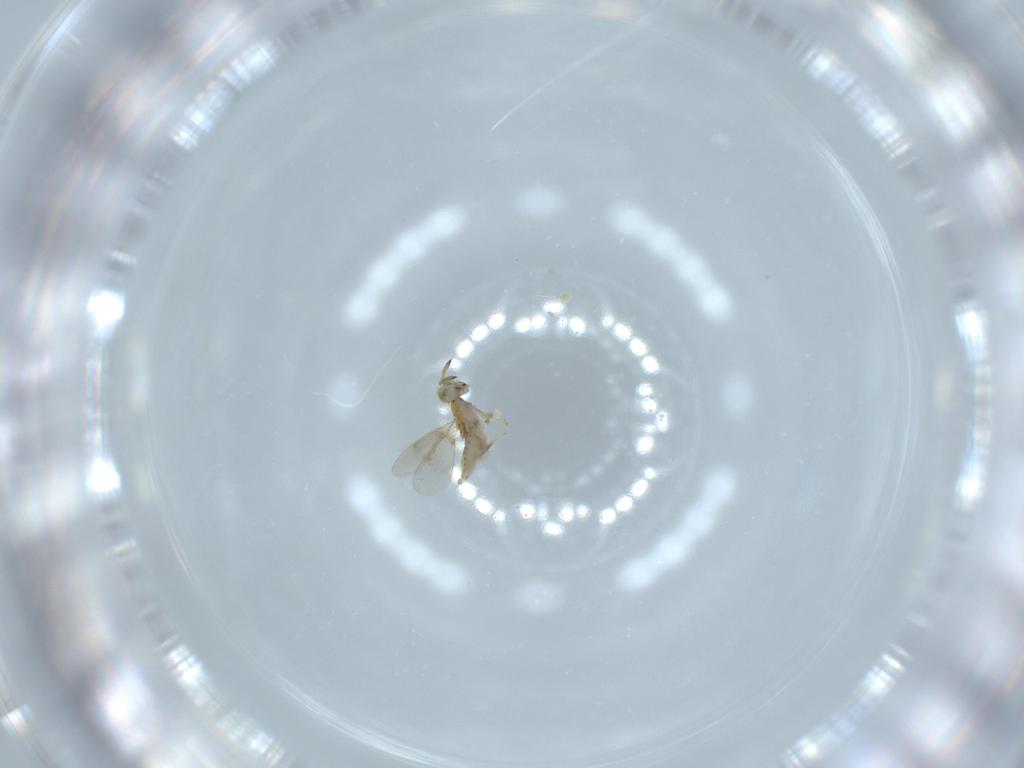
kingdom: Animalia
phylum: Arthropoda
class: Insecta
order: Hymenoptera
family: Aphelinidae
